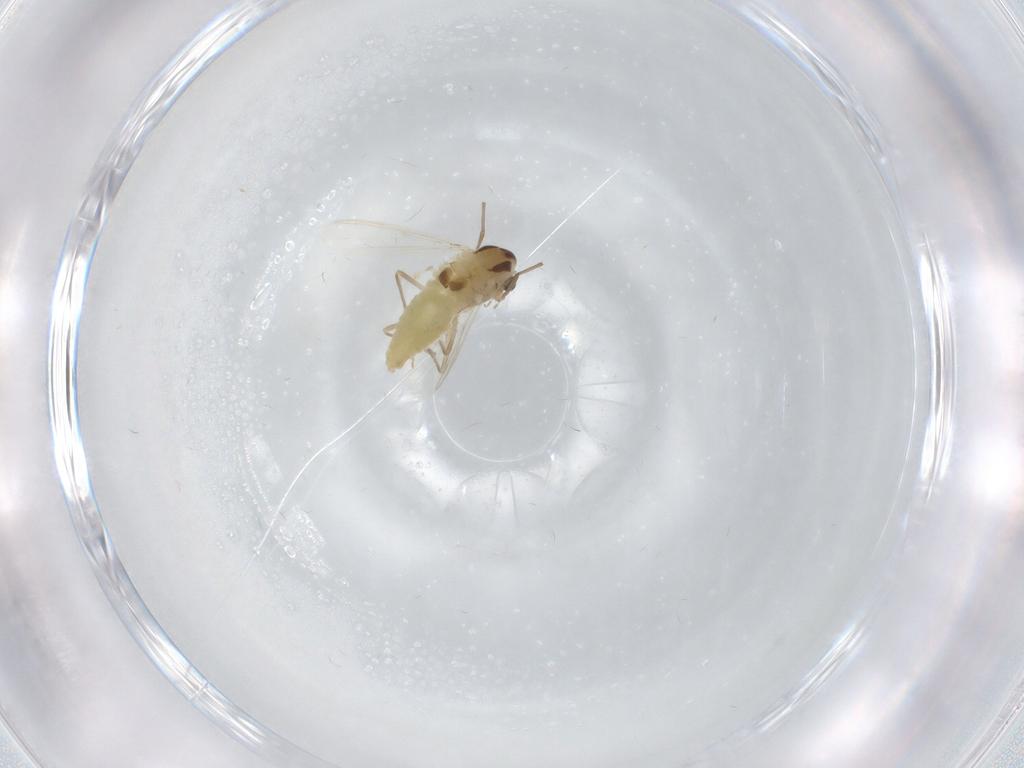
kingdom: Animalia
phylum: Arthropoda
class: Insecta
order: Diptera
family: Chironomidae
